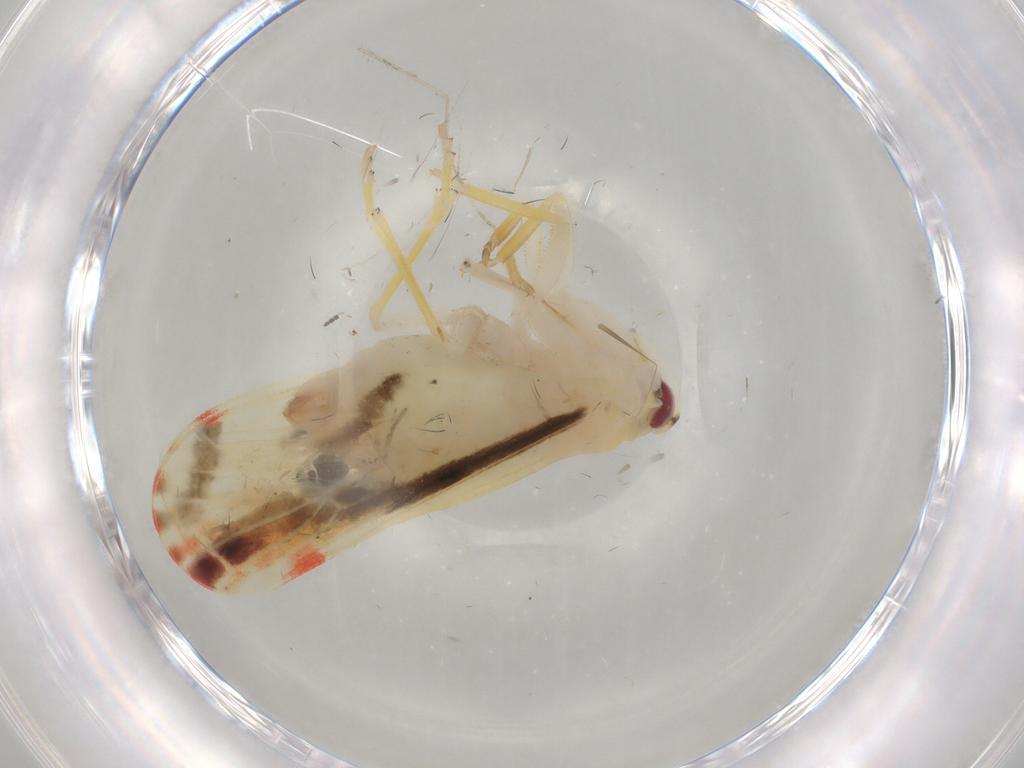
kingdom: Animalia
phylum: Arthropoda
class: Insecta
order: Hemiptera
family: Derbidae
